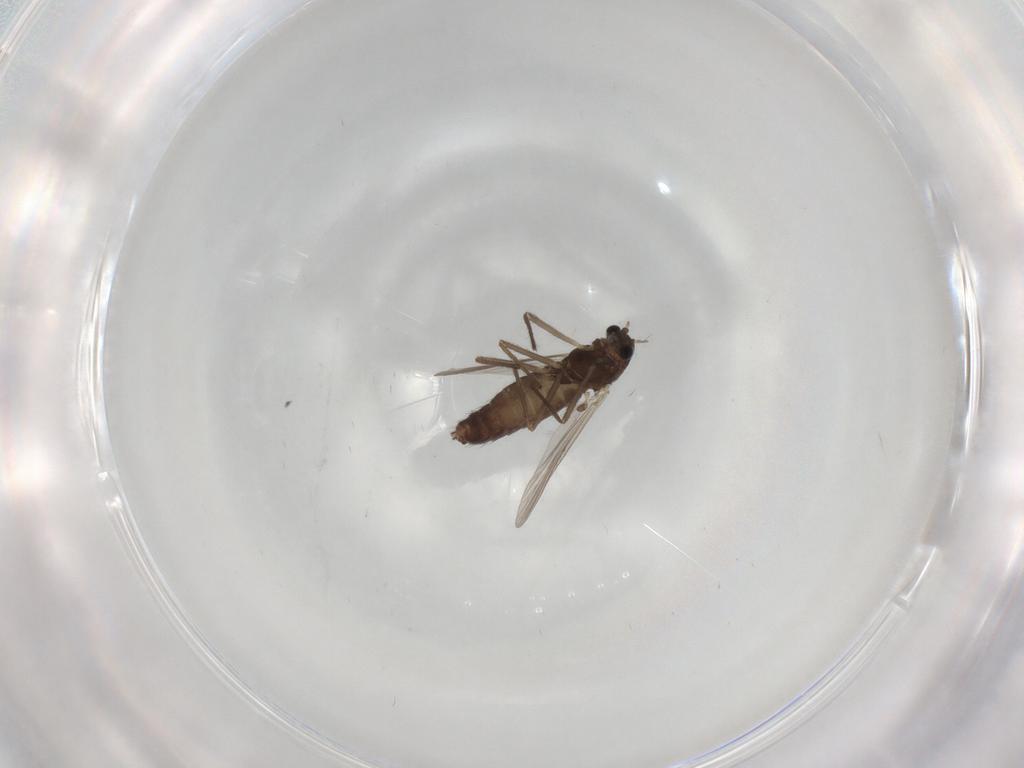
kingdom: Animalia
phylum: Arthropoda
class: Insecta
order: Diptera
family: Chironomidae
